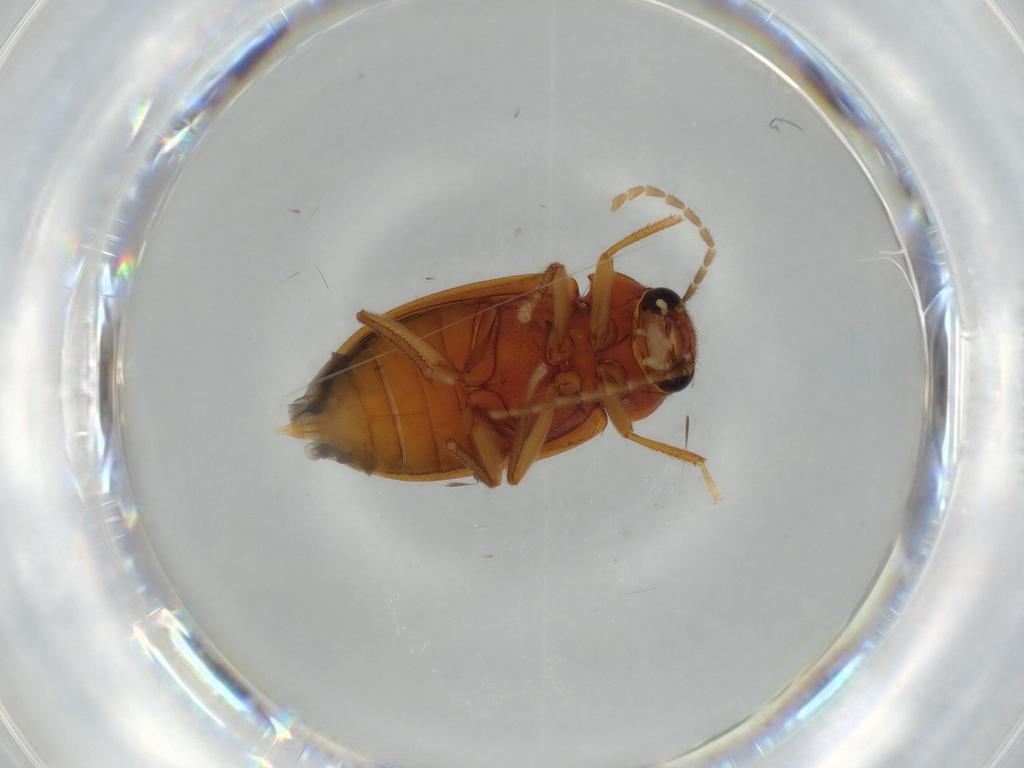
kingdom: Animalia
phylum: Arthropoda
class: Insecta
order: Coleoptera
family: Ptilodactylidae
